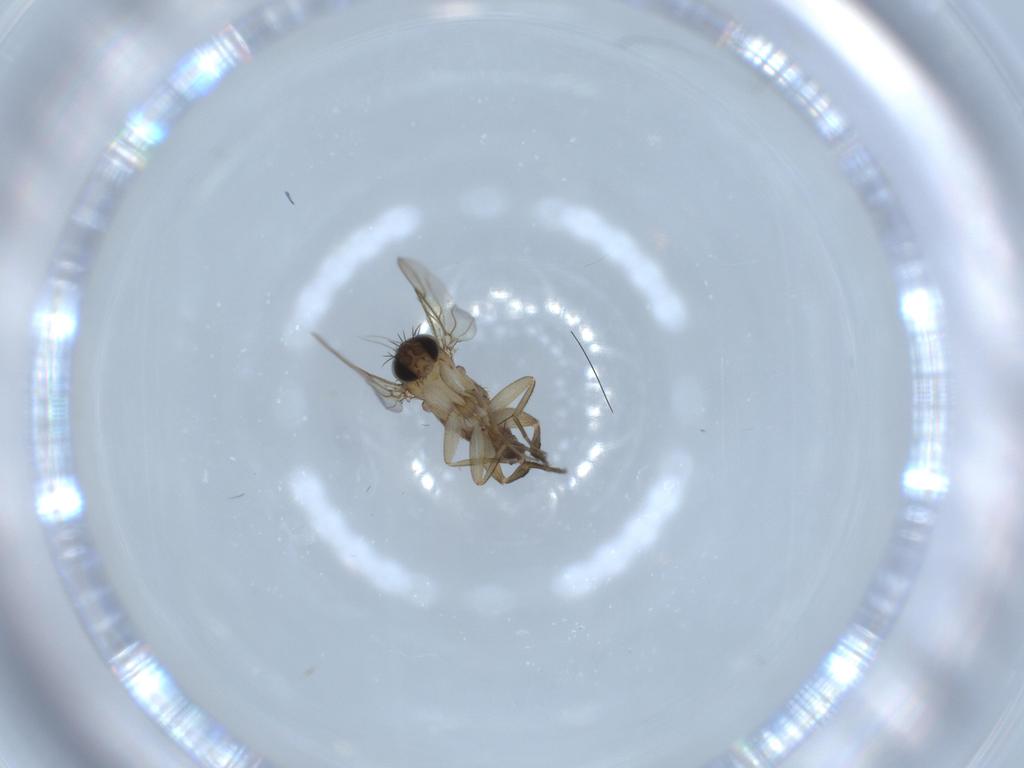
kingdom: Animalia
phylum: Arthropoda
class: Insecta
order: Diptera
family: Phoridae
